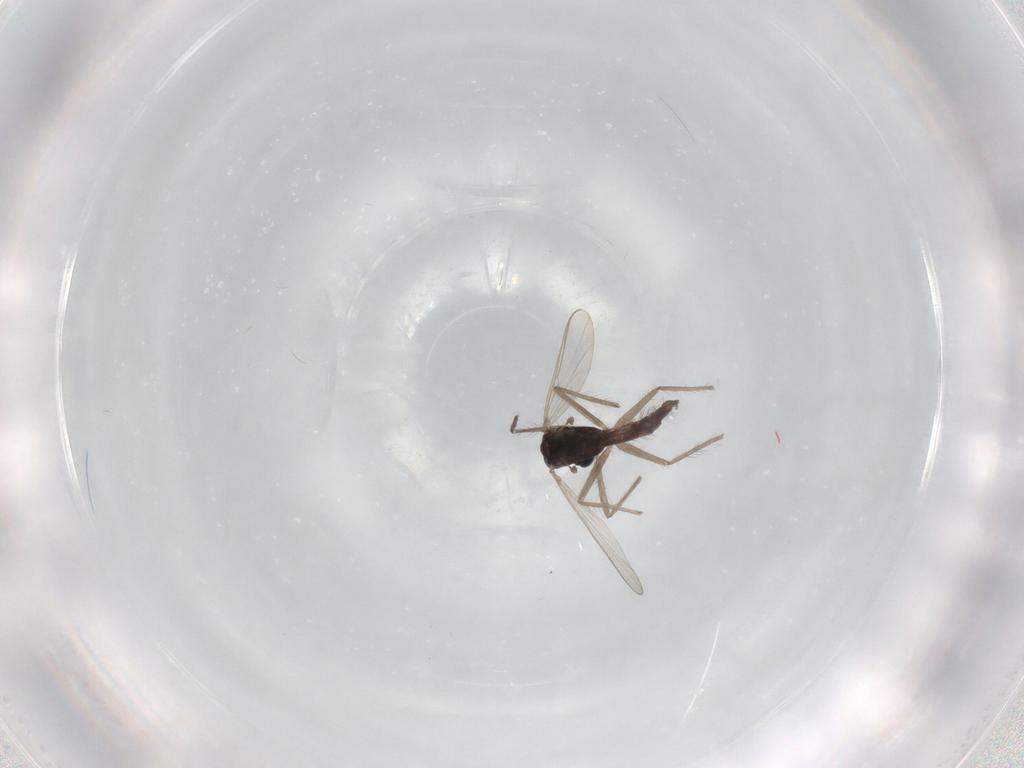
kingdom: Animalia
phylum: Arthropoda
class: Insecta
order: Diptera
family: Chironomidae
